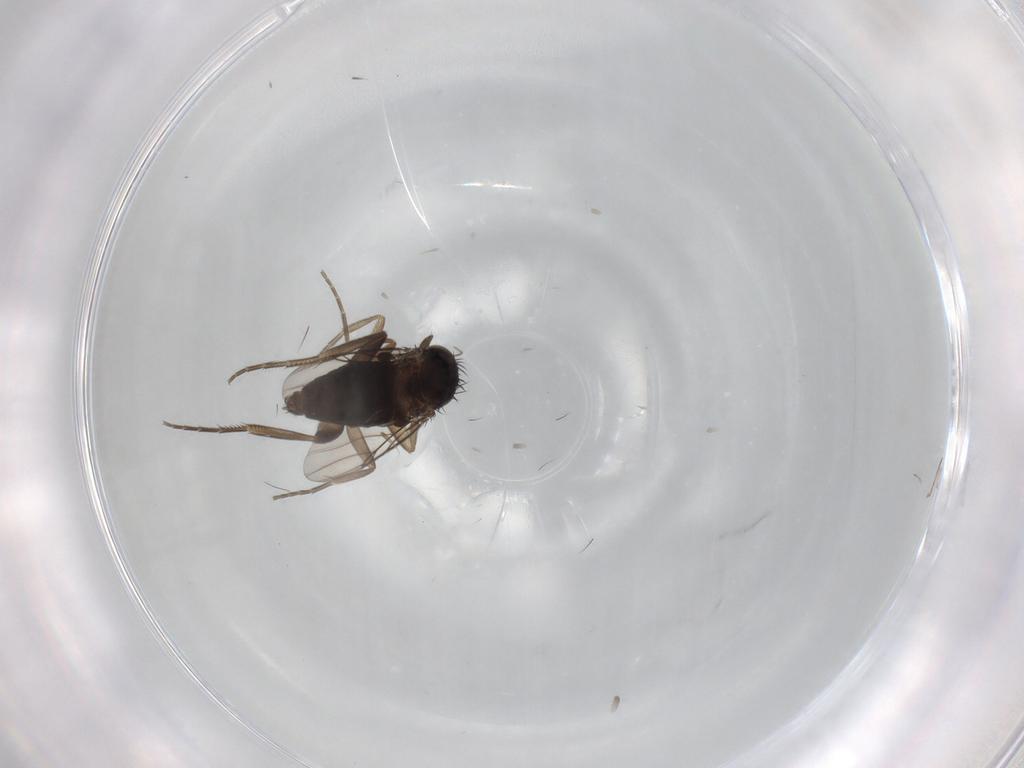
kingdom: Animalia
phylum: Arthropoda
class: Insecta
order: Diptera
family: Phoridae
